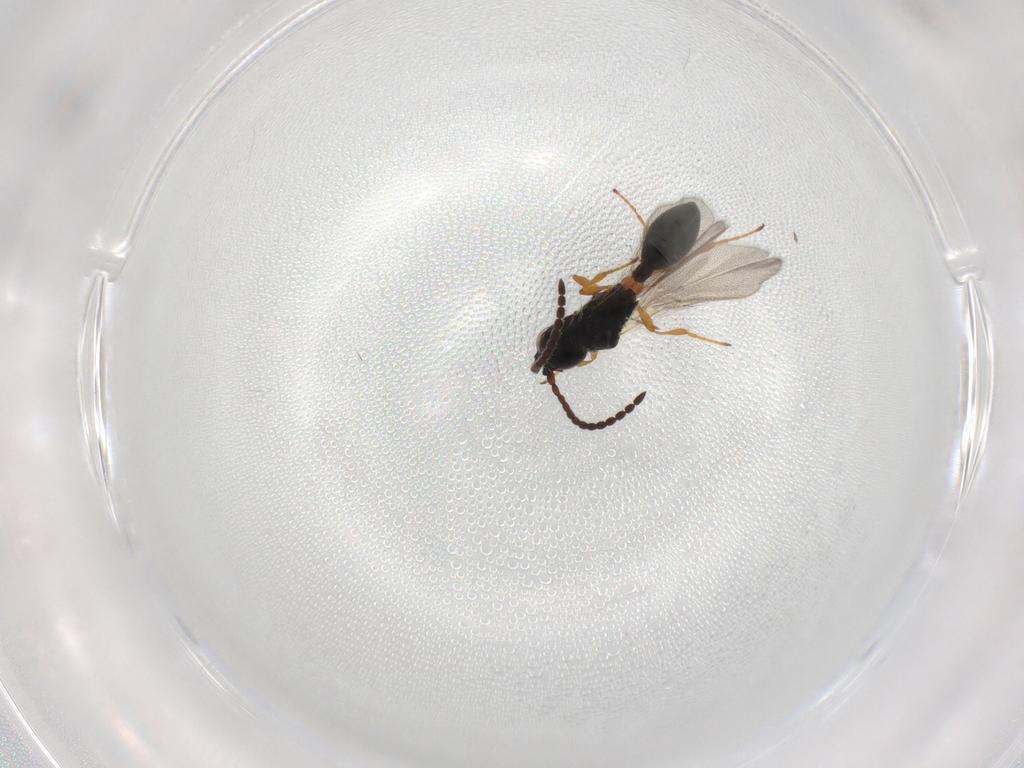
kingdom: Animalia
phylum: Arthropoda
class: Insecta
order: Hymenoptera
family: Diapriidae
